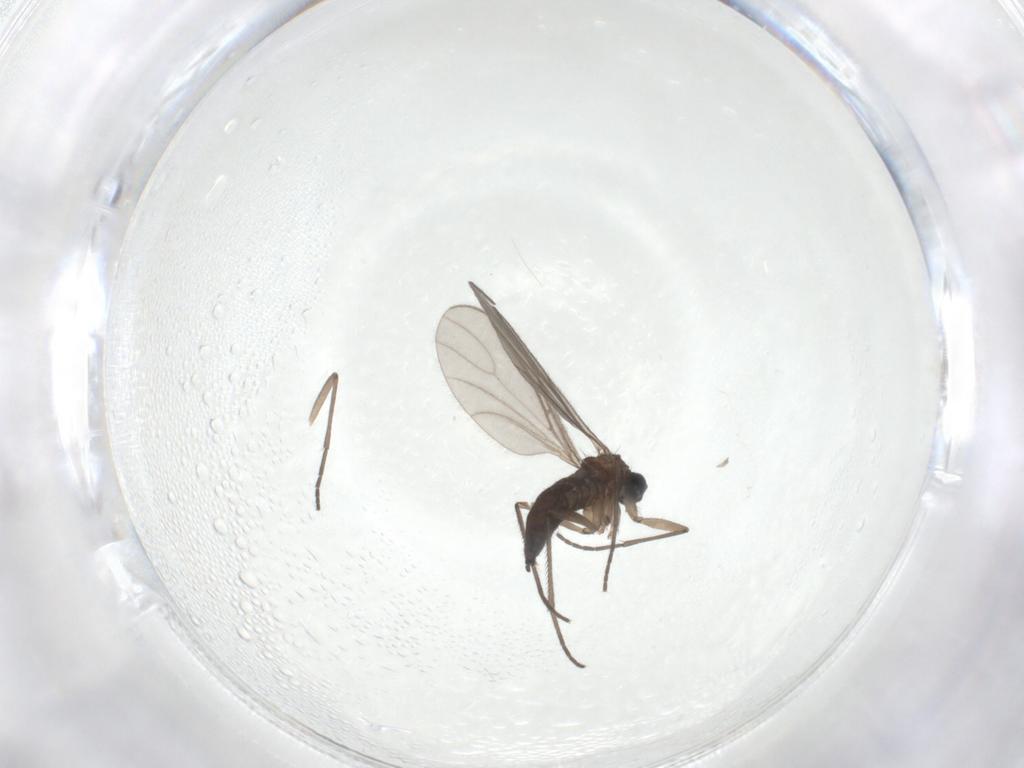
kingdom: Animalia
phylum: Arthropoda
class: Insecta
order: Diptera
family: Sciaridae
